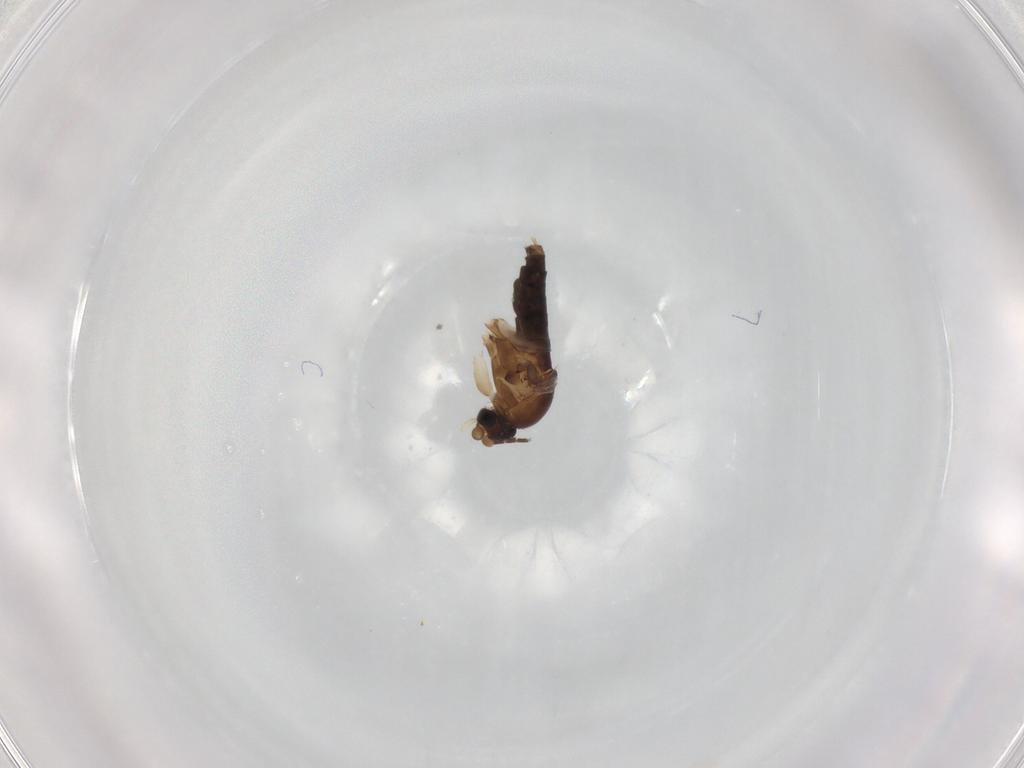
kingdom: Animalia
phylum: Arthropoda
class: Insecta
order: Diptera
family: Phoridae
